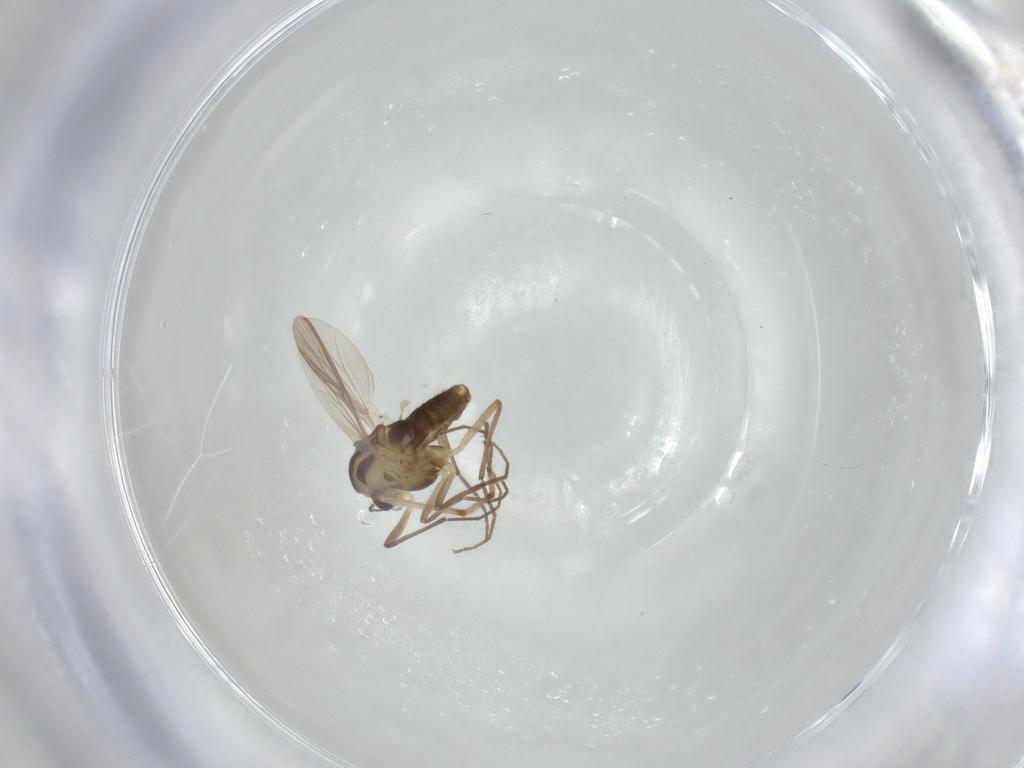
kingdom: Animalia
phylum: Arthropoda
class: Insecta
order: Diptera
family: Chironomidae
